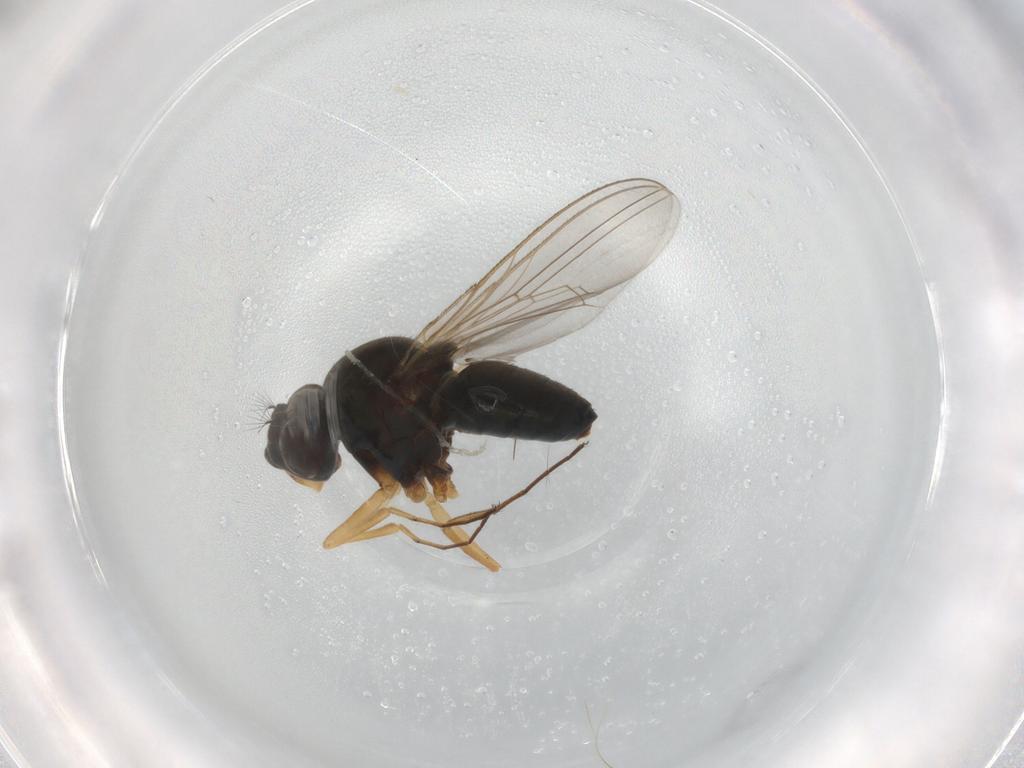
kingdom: Animalia
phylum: Arthropoda
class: Insecta
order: Diptera
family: Ephydridae
